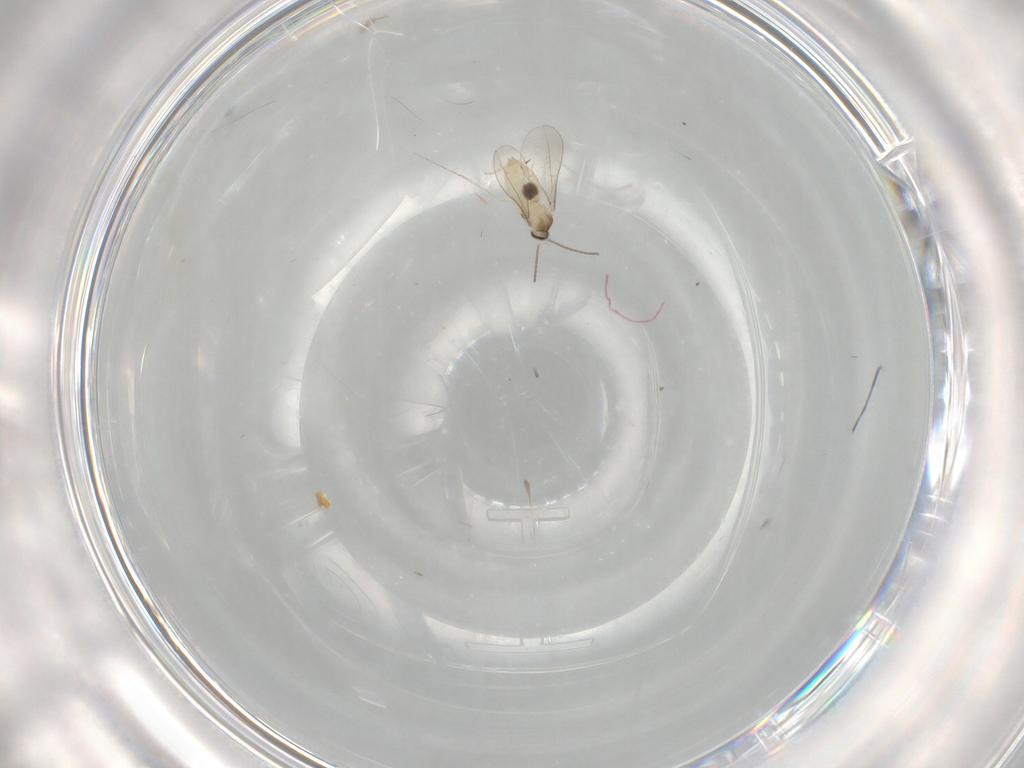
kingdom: Animalia
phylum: Arthropoda
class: Insecta
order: Diptera
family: Cecidomyiidae
